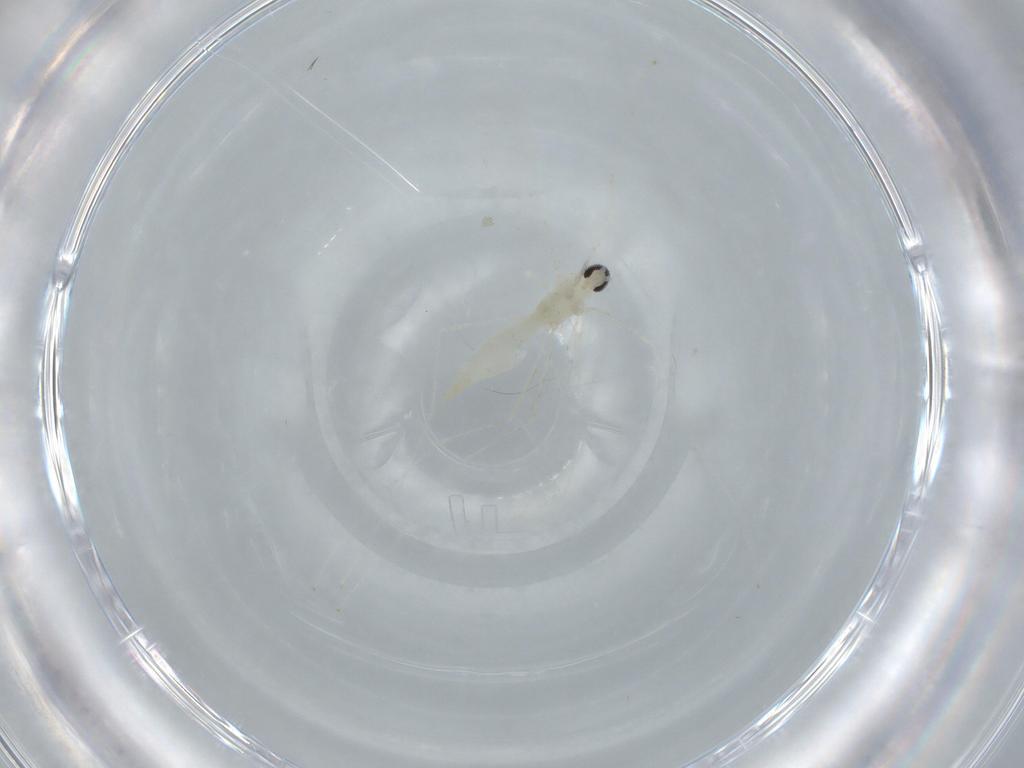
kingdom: Animalia
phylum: Arthropoda
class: Insecta
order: Diptera
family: Cecidomyiidae
